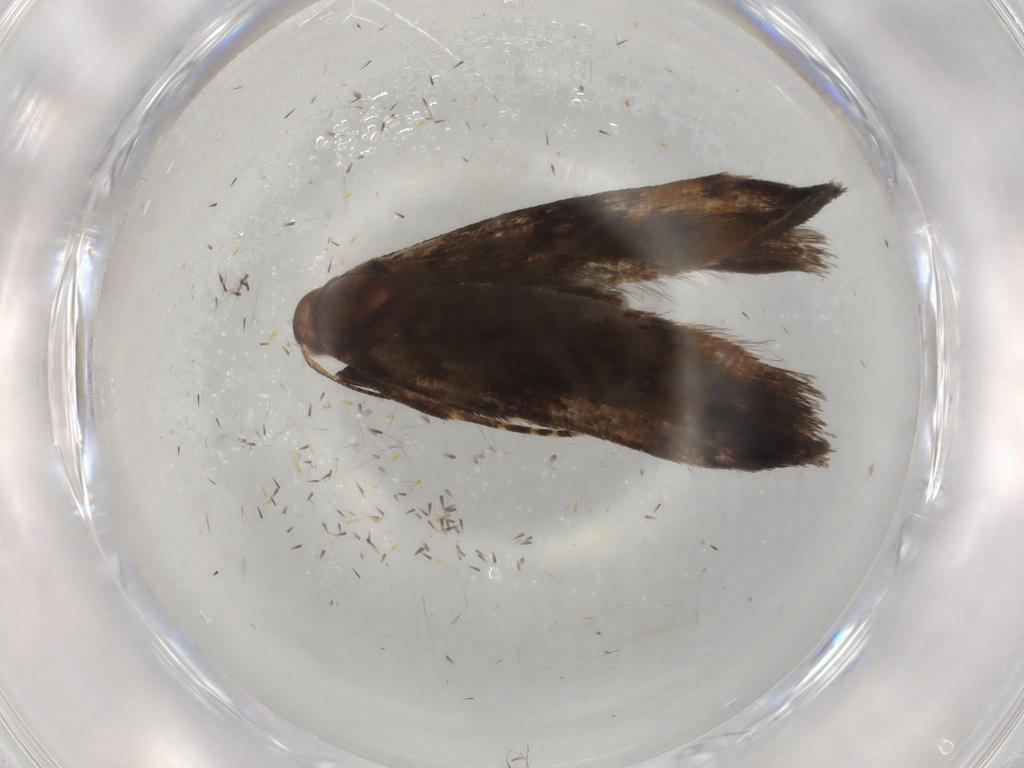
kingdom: Animalia
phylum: Arthropoda
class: Insecta
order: Lepidoptera
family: Gelechiidae
